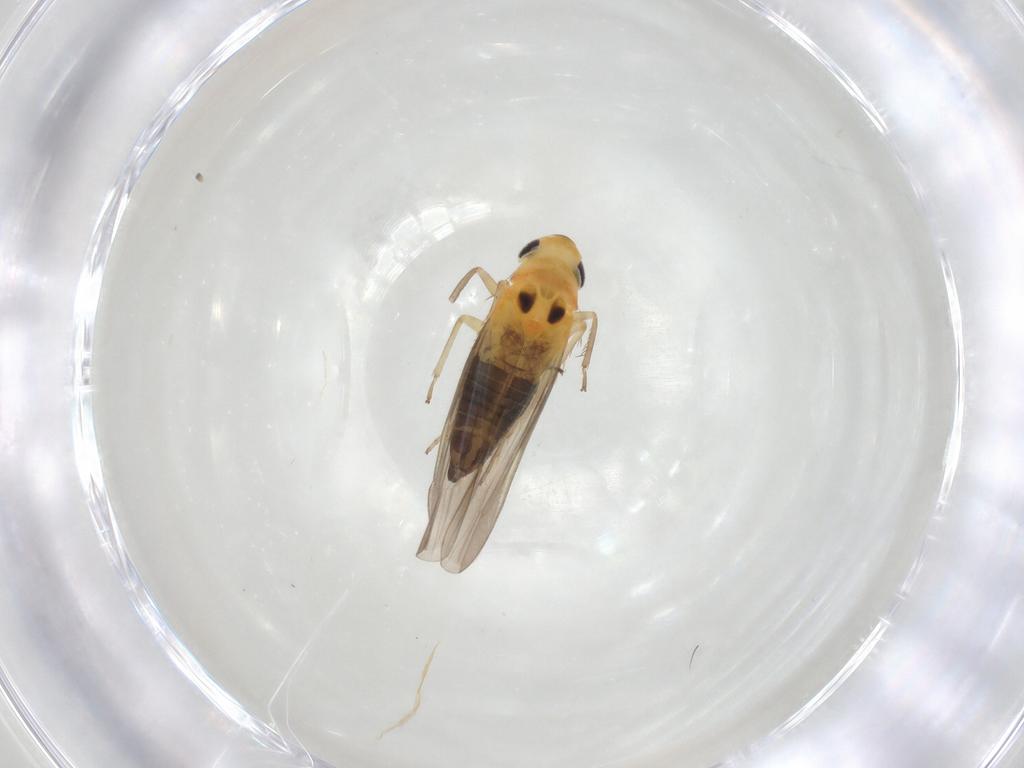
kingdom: Animalia
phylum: Arthropoda
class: Insecta
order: Hemiptera
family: Cicadellidae
